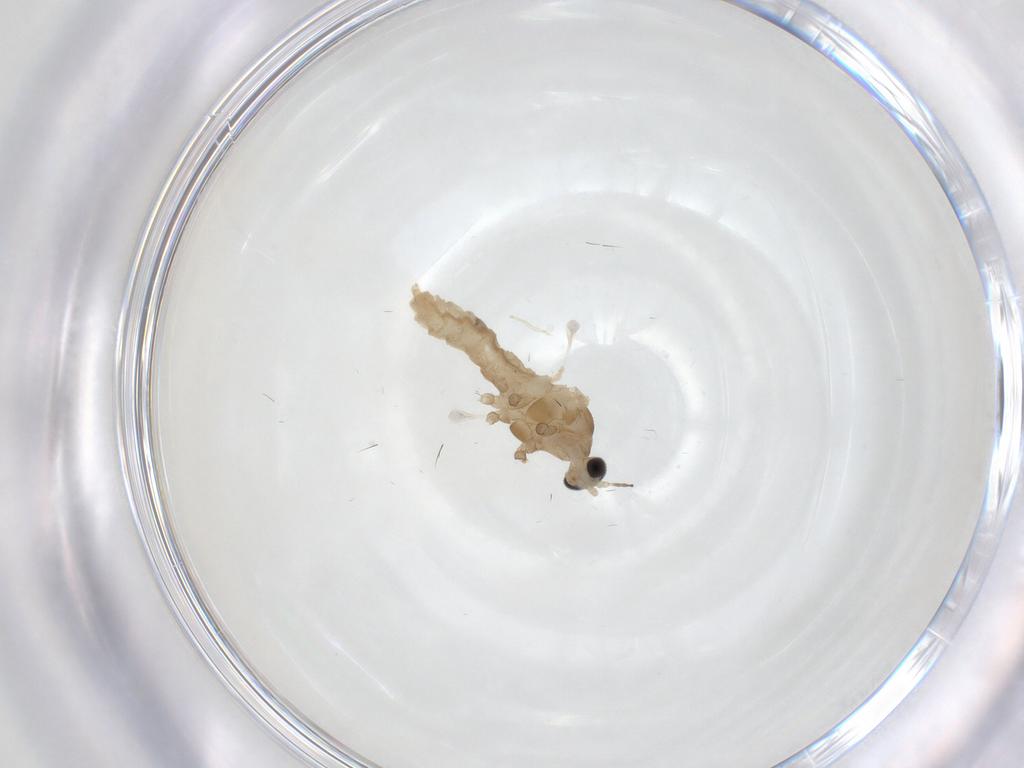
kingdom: Animalia
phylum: Arthropoda
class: Insecta
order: Diptera
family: Cecidomyiidae
